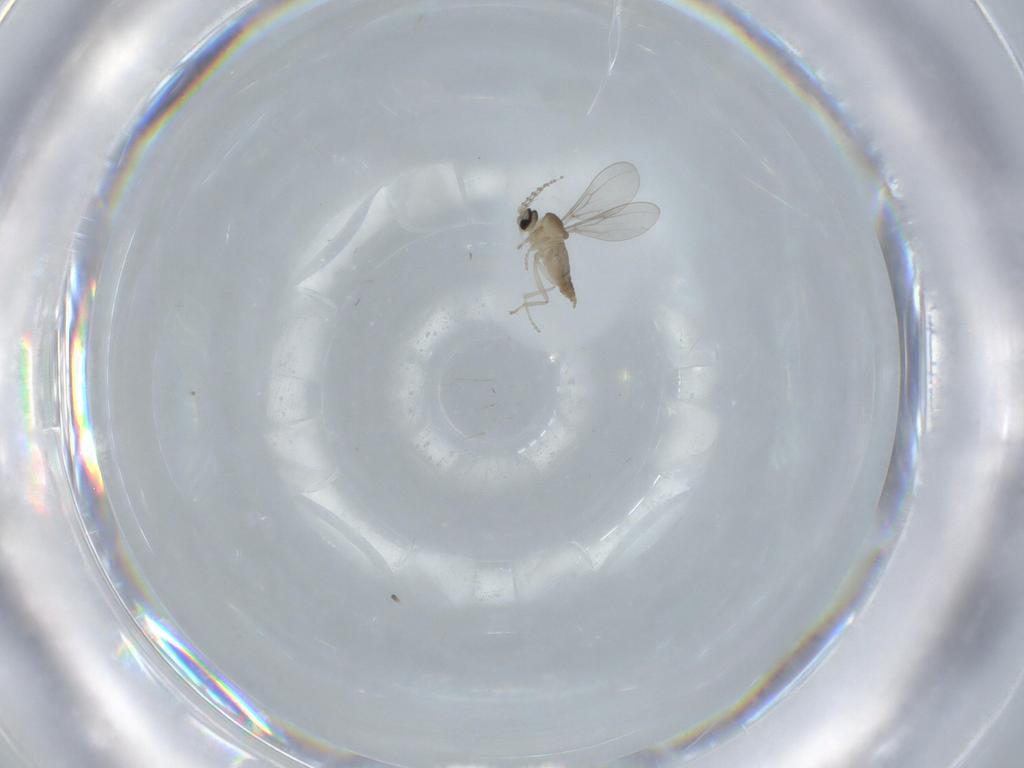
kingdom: Animalia
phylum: Arthropoda
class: Insecta
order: Diptera
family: Cecidomyiidae
